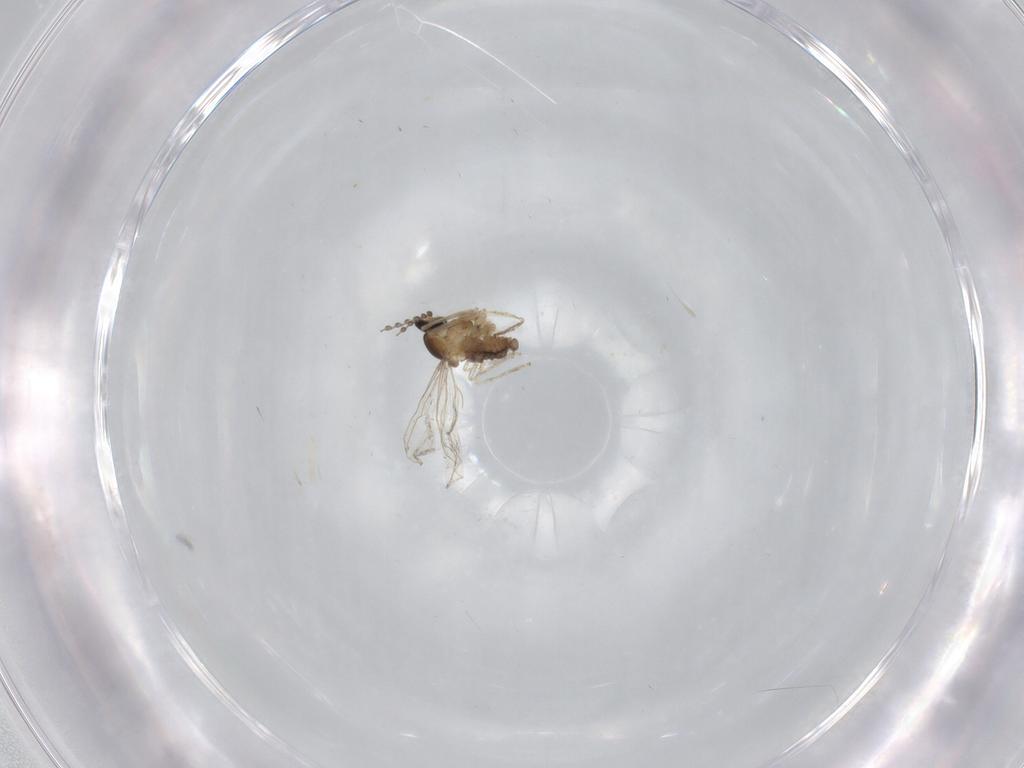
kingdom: Animalia
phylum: Arthropoda
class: Insecta
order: Diptera
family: Cecidomyiidae
